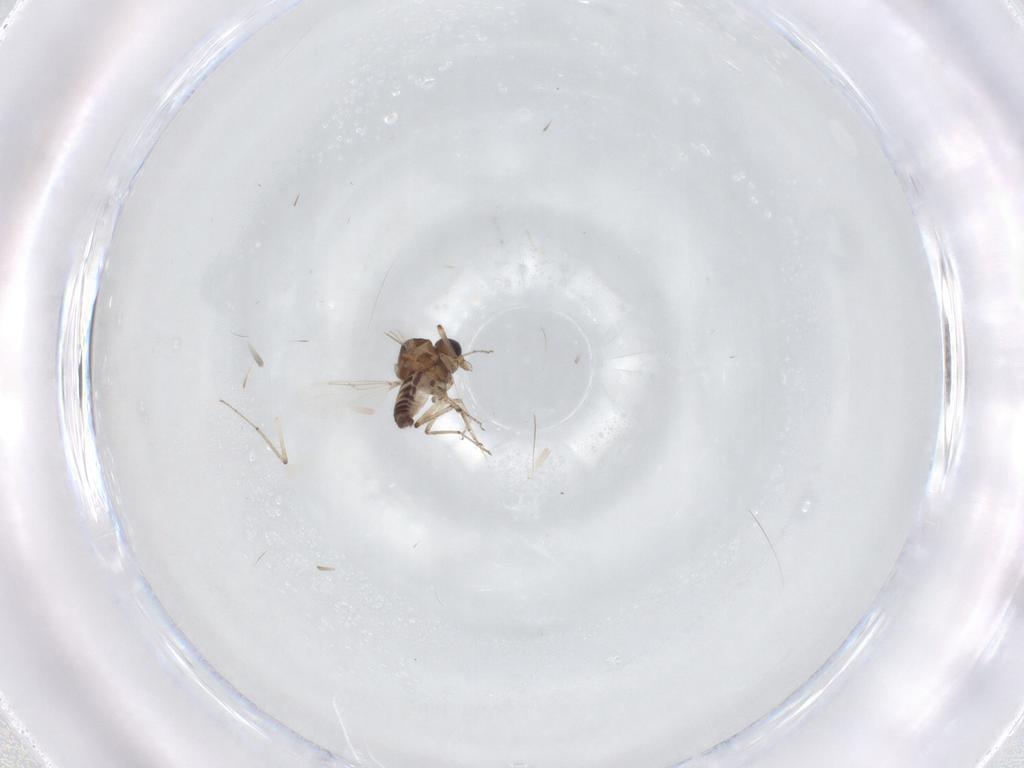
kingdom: Animalia
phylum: Arthropoda
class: Insecta
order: Diptera
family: Ceratopogonidae
